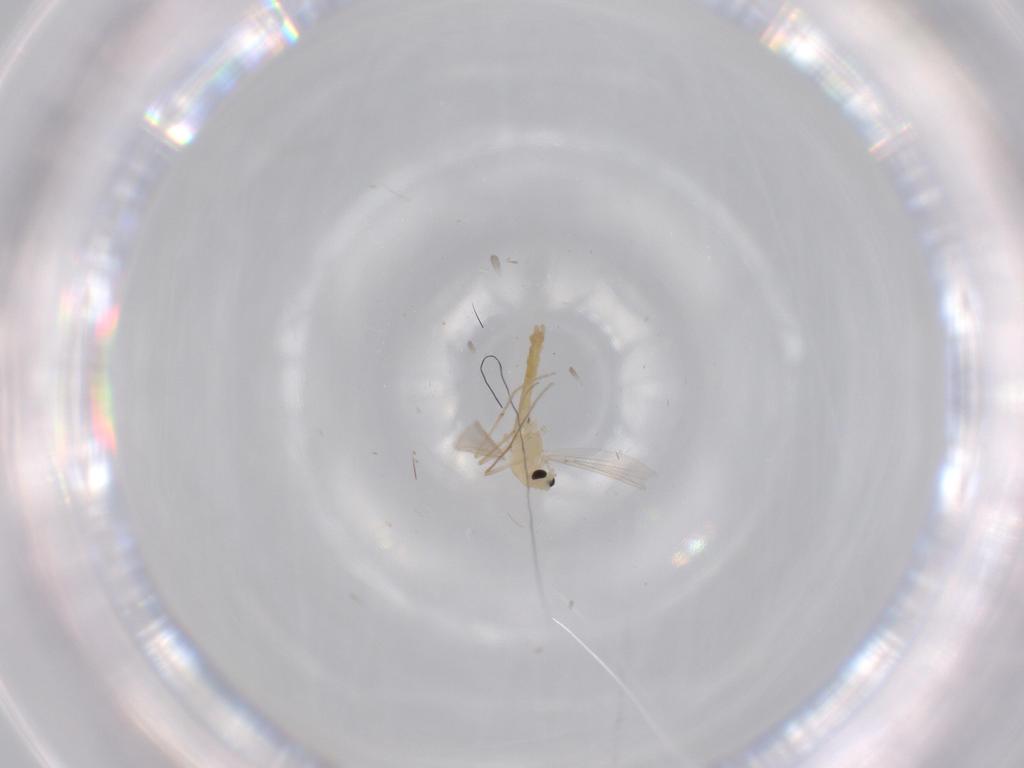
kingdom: Animalia
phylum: Arthropoda
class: Insecta
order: Diptera
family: Chironomidae
